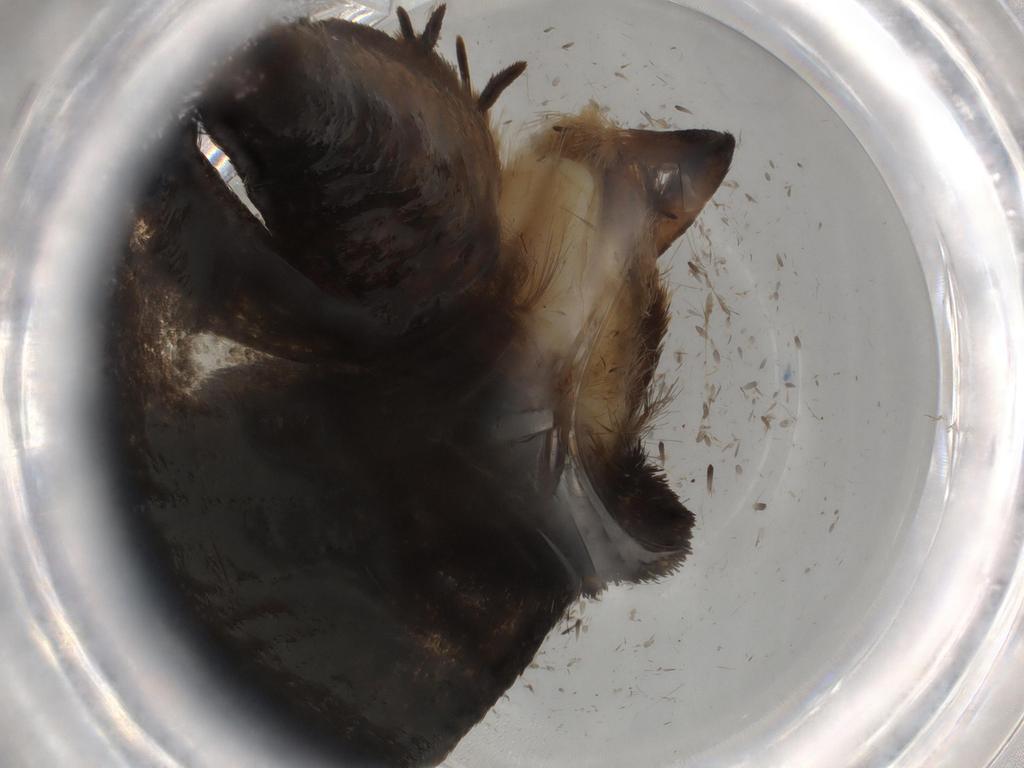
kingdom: Animalia
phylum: Arthropoda
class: Insecta
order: Lepidoptera
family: Tineidae
